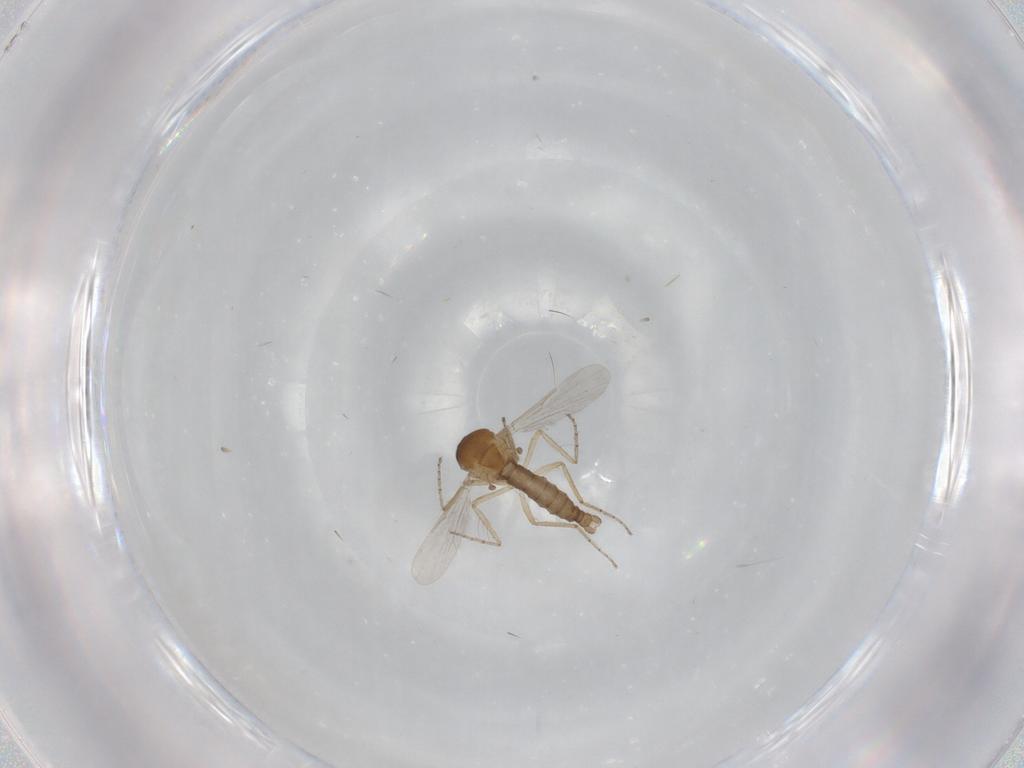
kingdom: Animalia
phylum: Arthropoda
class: Insecta
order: Diptera
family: Ceratopogonidae
